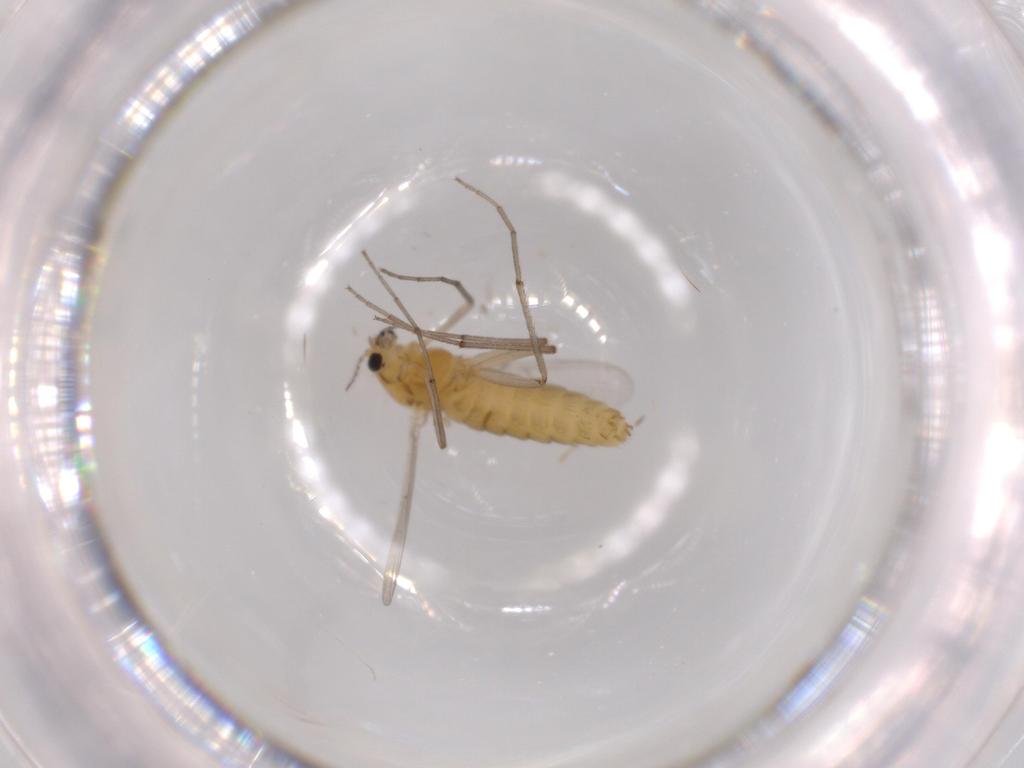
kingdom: Animalia
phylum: Arthropoda
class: Insecta
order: Diptera
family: Chironomidae
